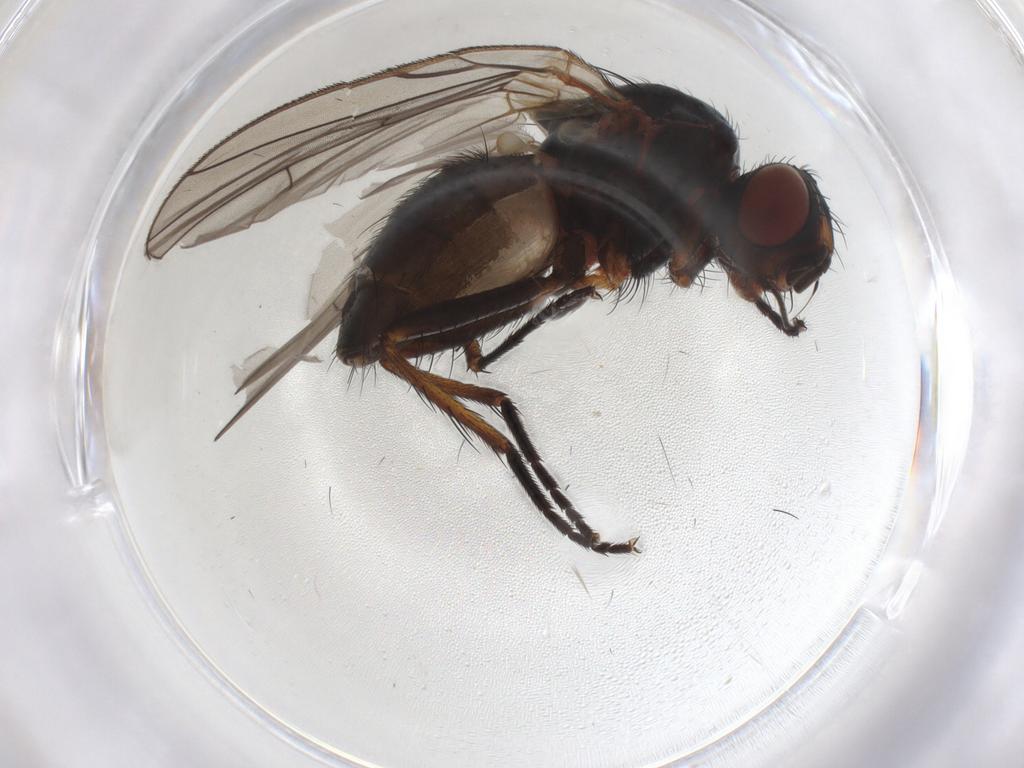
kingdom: Animalia
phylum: Arthropoda
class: Insecta
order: Diptera
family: Anthomyiidae
